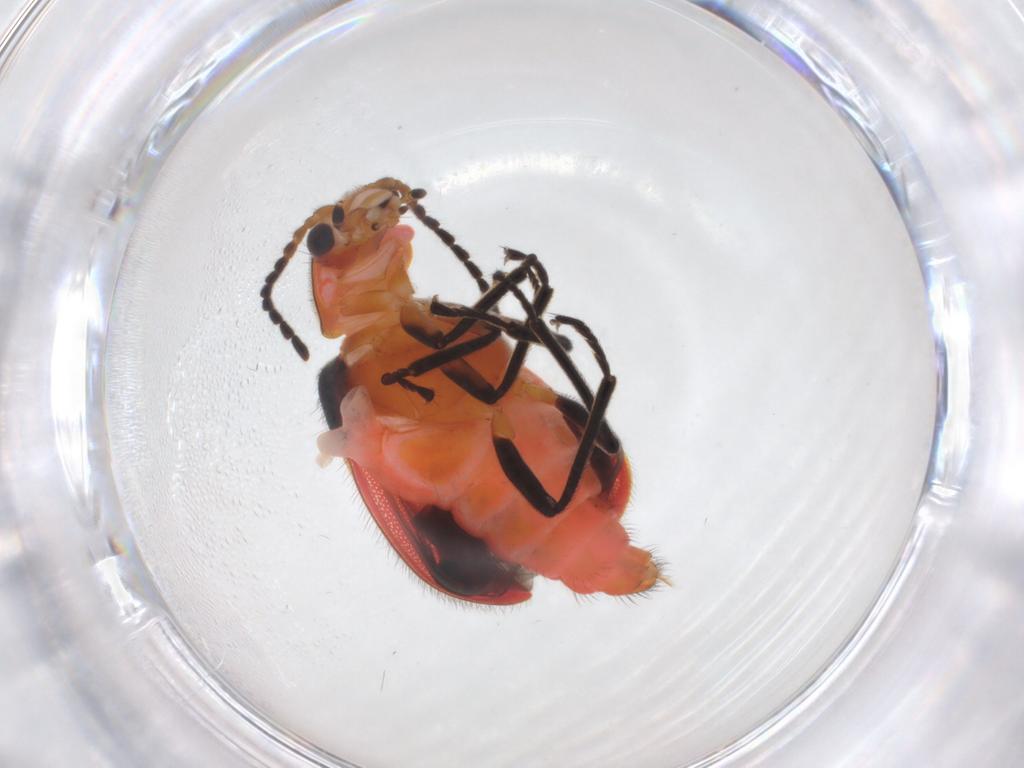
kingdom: Animalia
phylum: Arthropoda
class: Insecta
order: Coleoptera
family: Melyridae
